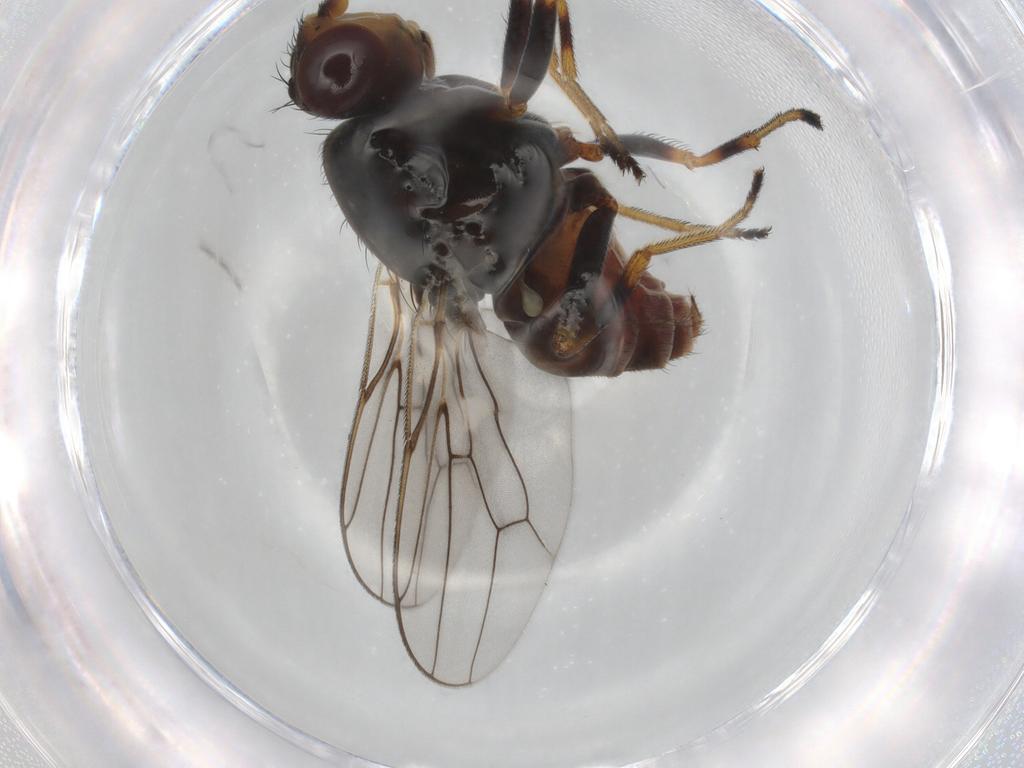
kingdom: Animalia
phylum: Arthropoda
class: Insecta
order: Diptera
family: Chloropidae
